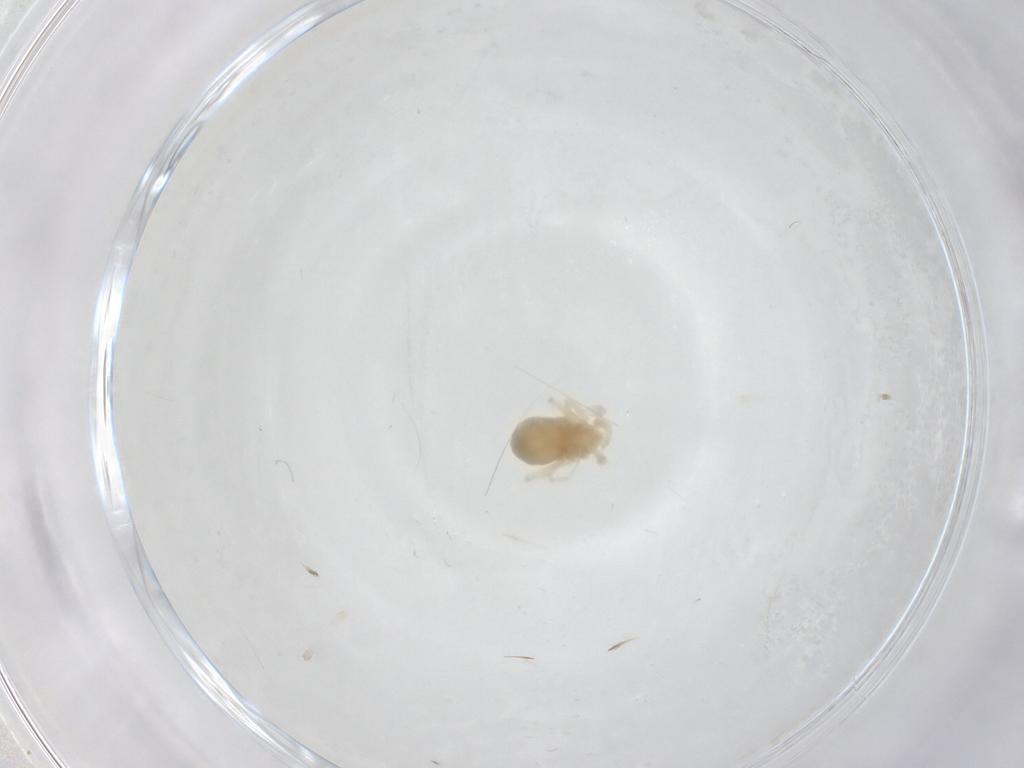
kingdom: Animalia
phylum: Arthropoda
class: Arachnida
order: Trombidiformes
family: Anystidae
